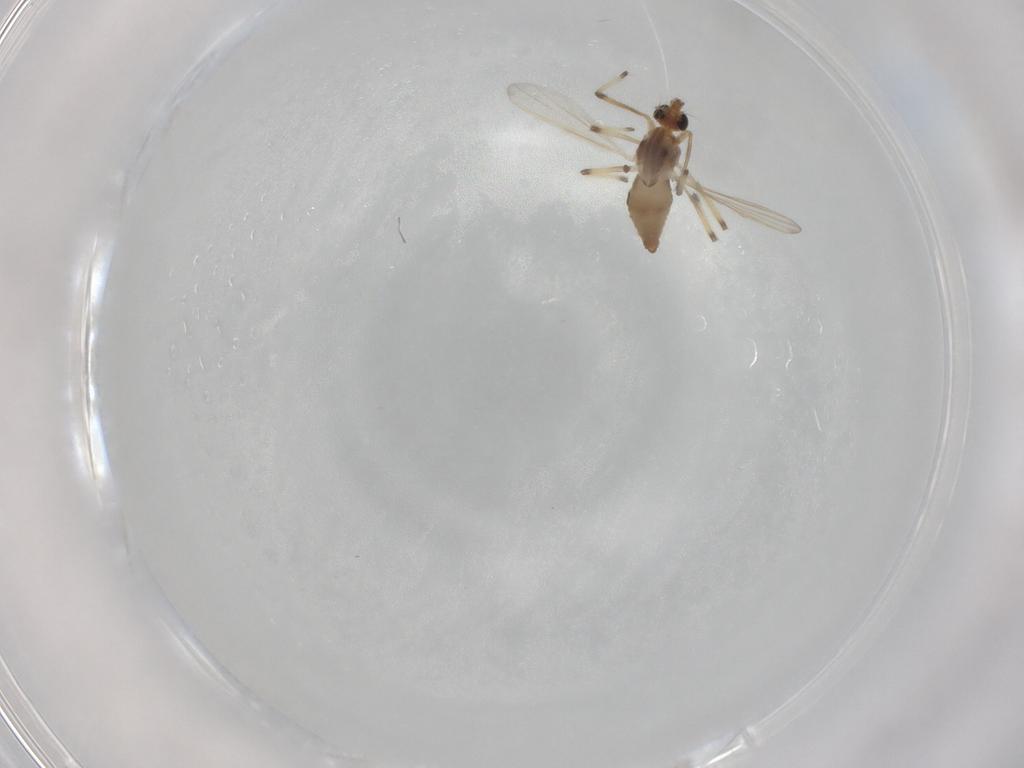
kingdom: Animalia
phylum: Arthropoda
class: Insecta
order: Diptera
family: Chironomidae
